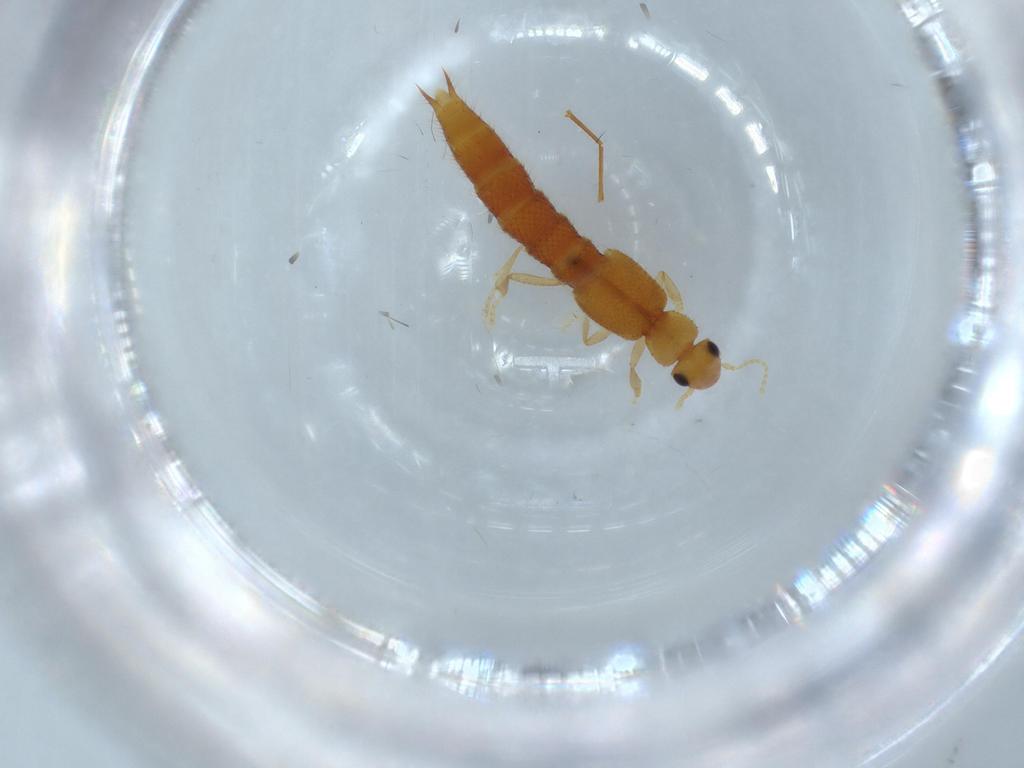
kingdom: Animalia
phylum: Arthropoda
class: Insecta
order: Coleoptera
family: Staphylinidae
